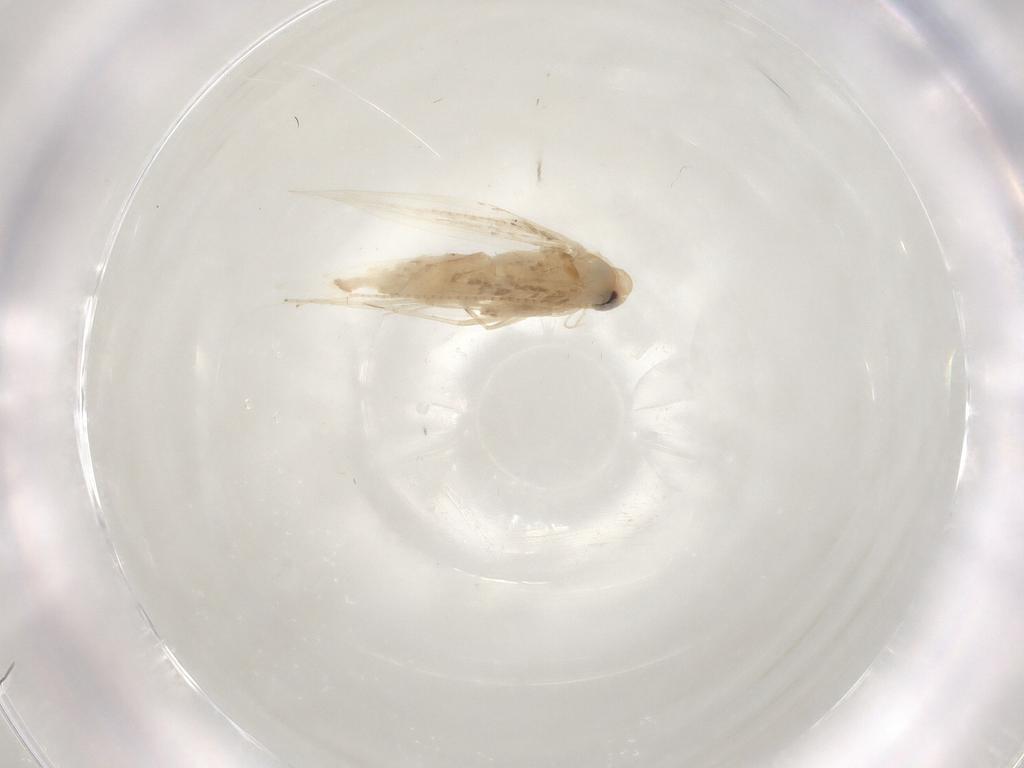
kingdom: Animalia
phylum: Arthropoda
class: Insecta
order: Lepidoptera
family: Gracillariidae
